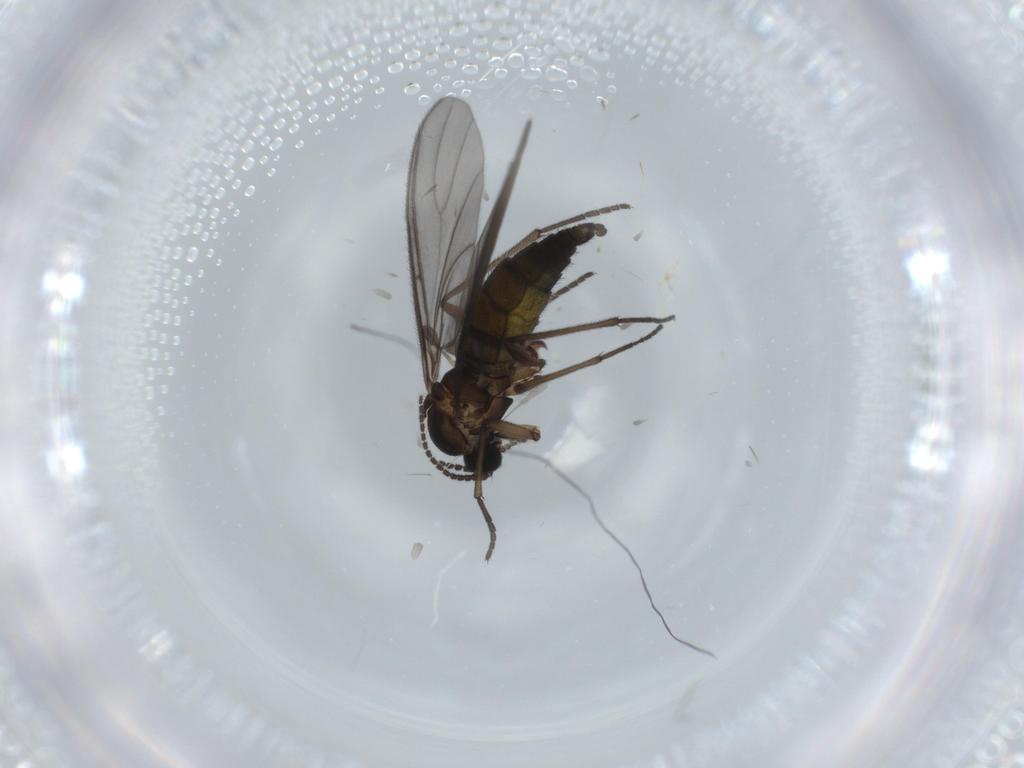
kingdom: Animalia
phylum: Arthropoda
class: Insecta
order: Diptera
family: Sciaridae
